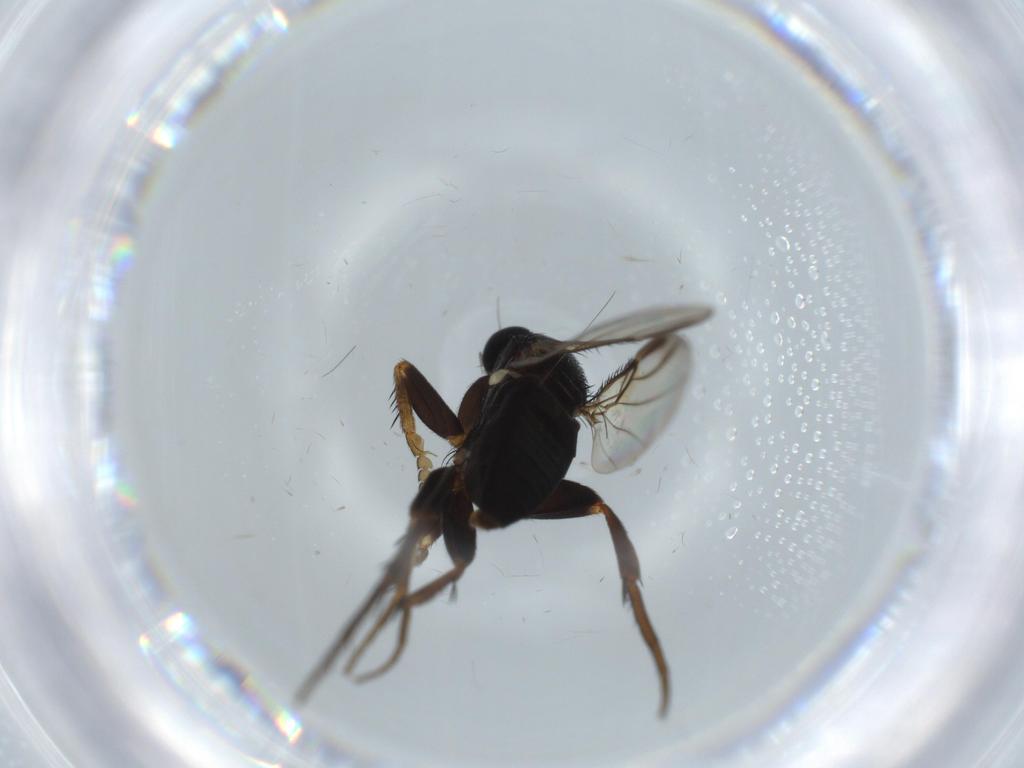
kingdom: Animalia
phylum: Arthropoda
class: Insecta
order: Diptera
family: Phoridae
